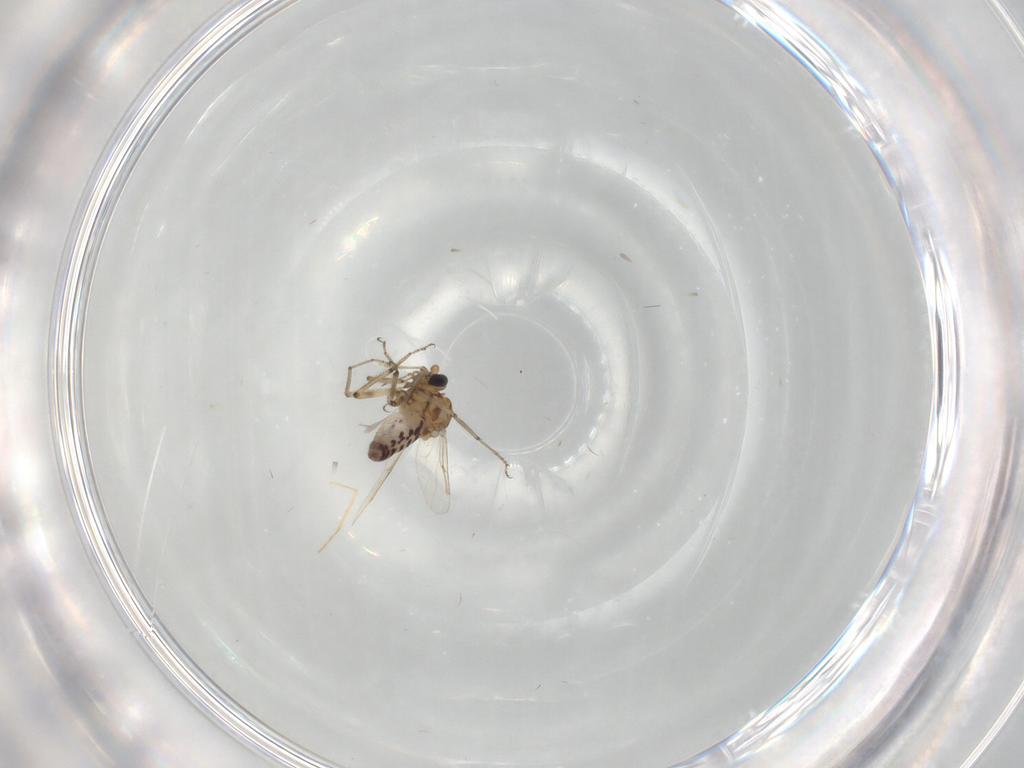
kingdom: Animalia
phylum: Arthropoda
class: Insecta
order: Diptera
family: Ceratopogonidae
